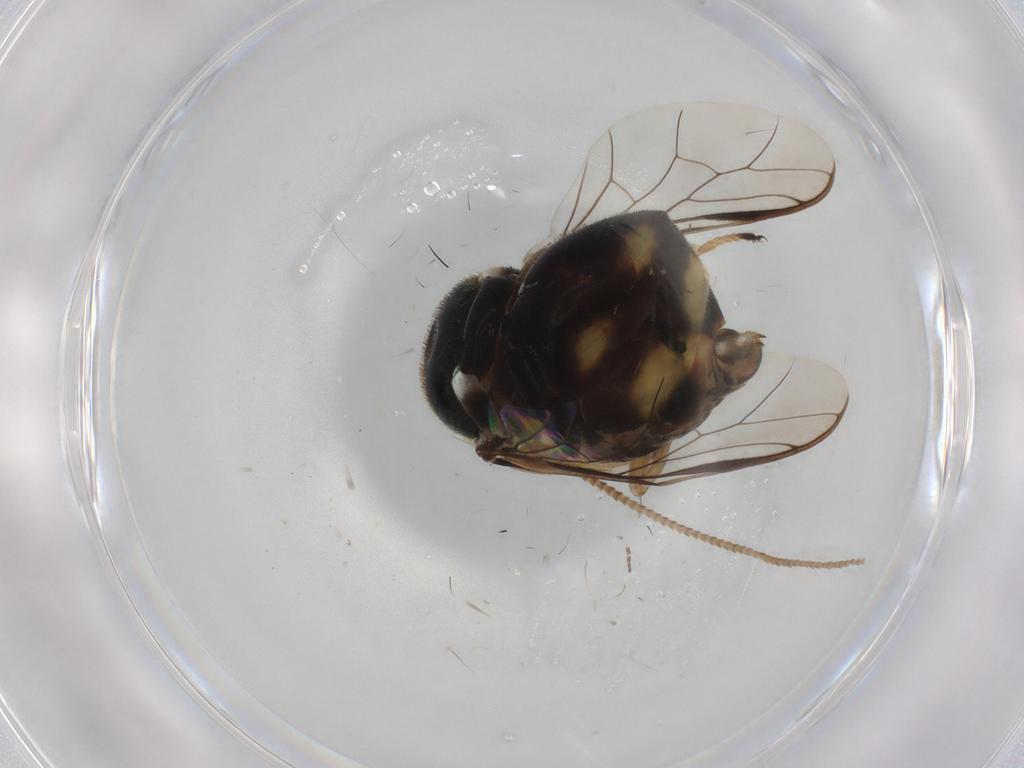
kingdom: Animalia
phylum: Arthropoda
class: Insecta
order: Diptera
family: Acroceridae
